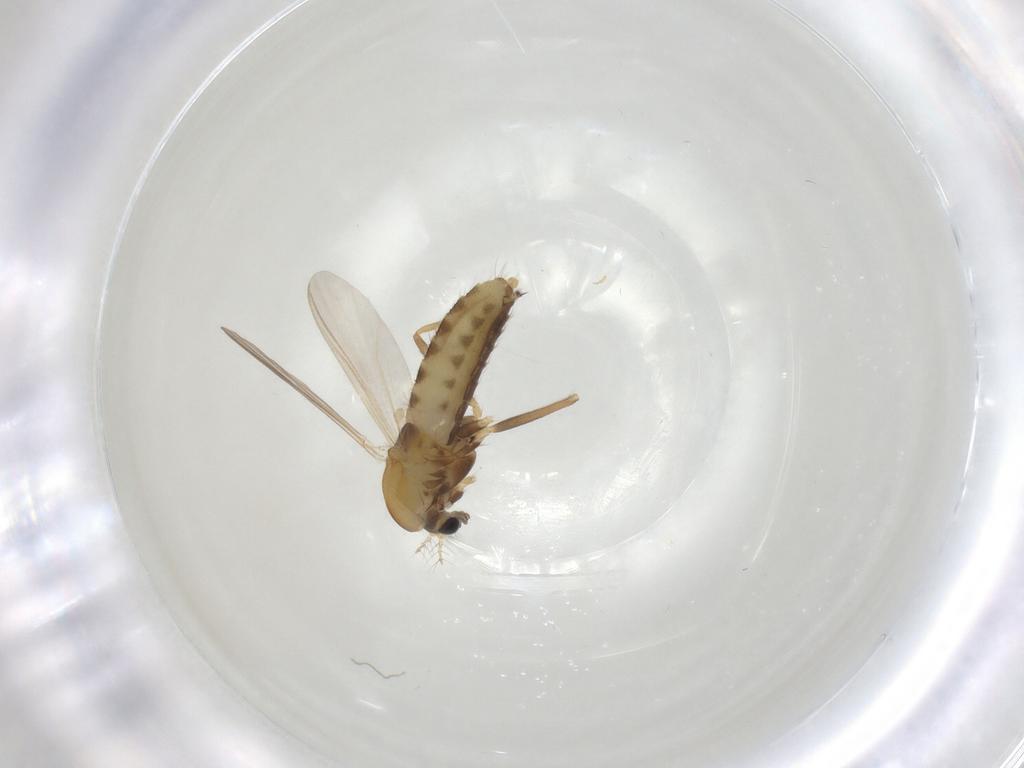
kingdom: Animalia
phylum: Arthropoda
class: Insecta
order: Diptera
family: Chironomidae
